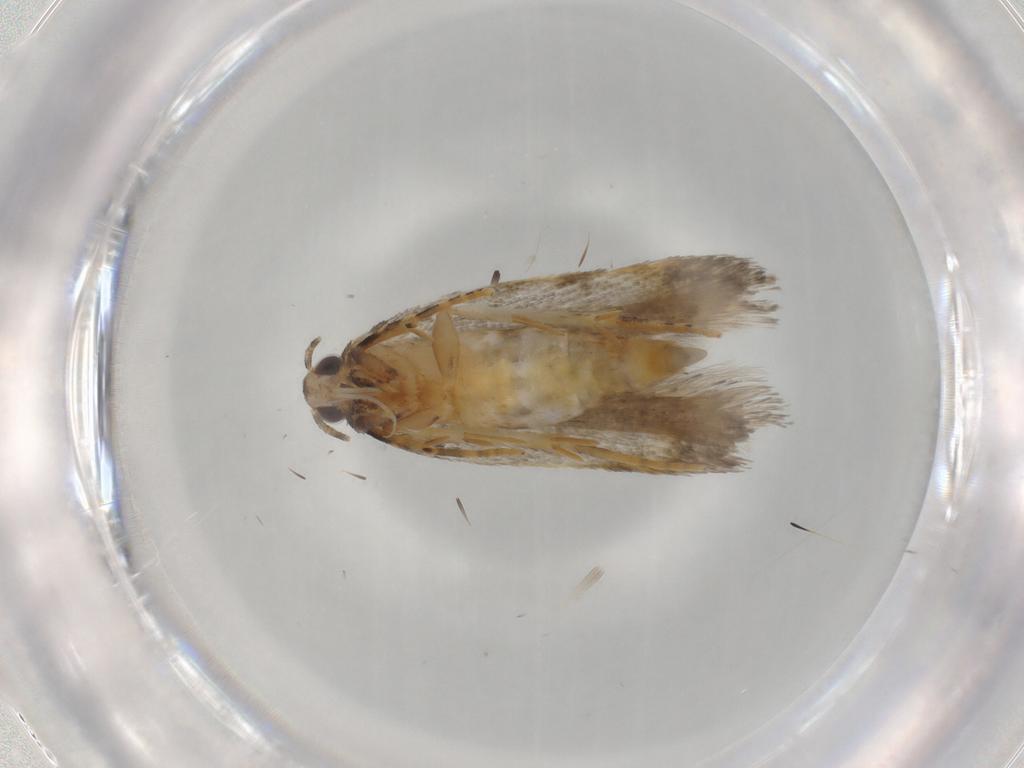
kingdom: Animalia
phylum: Arthropoda
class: Insecta
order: Lepidoptera
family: Autostichidae
